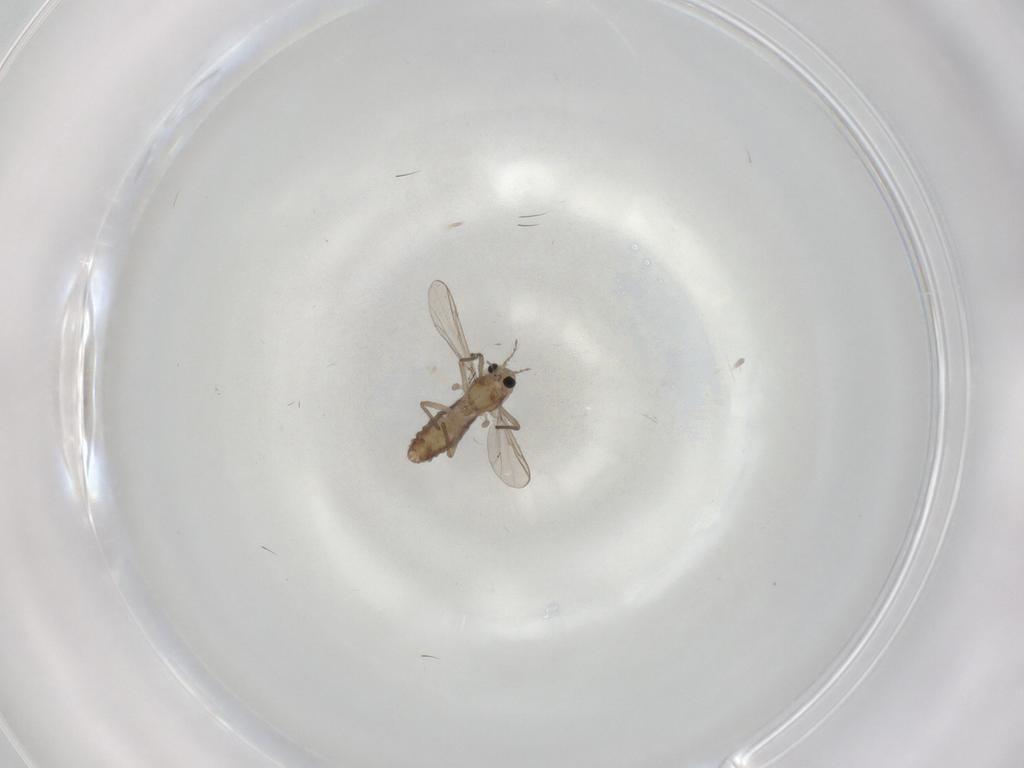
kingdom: Animalia
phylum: Arthropoda
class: Insecta
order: Diptera
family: Chironomidae
